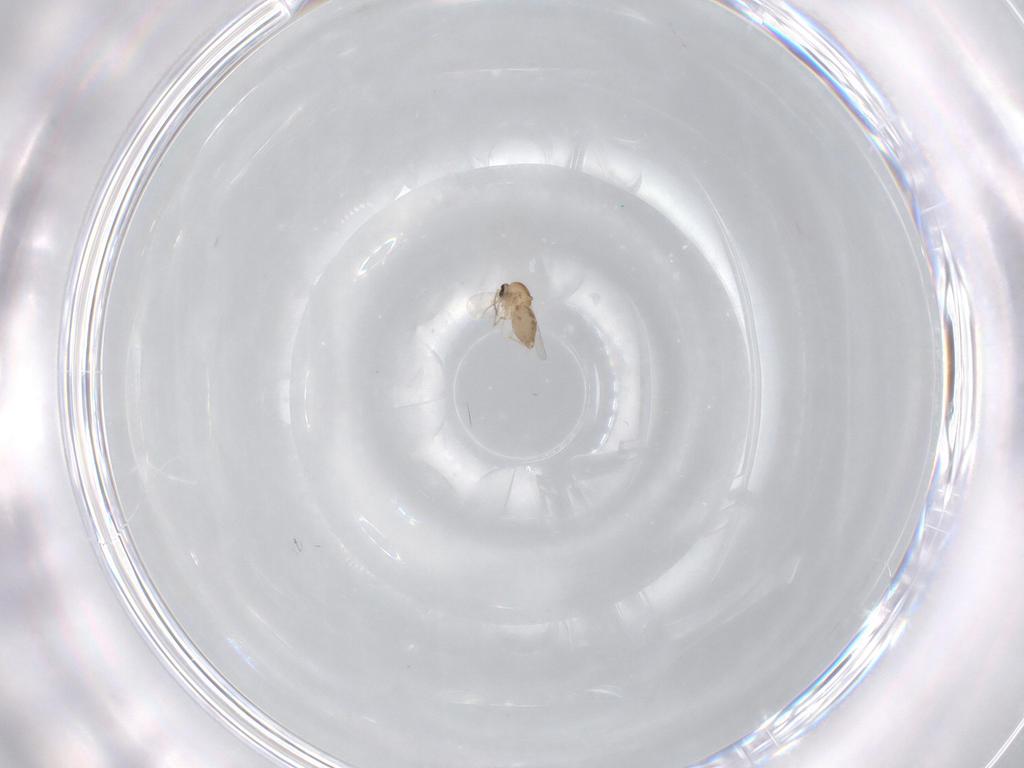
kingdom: Animalia
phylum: Arthropoda
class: Insecta
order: Diptera
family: Ceratopogonidae
